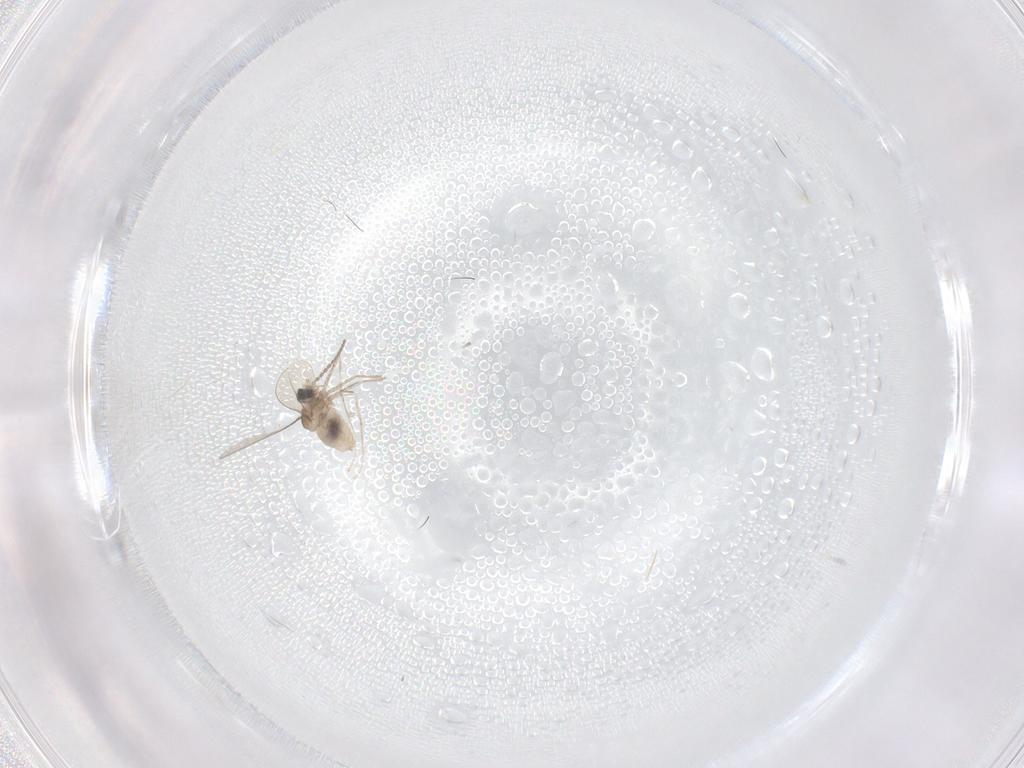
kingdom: Animalia
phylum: Arthropoda
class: Insecta
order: Diptera
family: Cecidomyiidae
